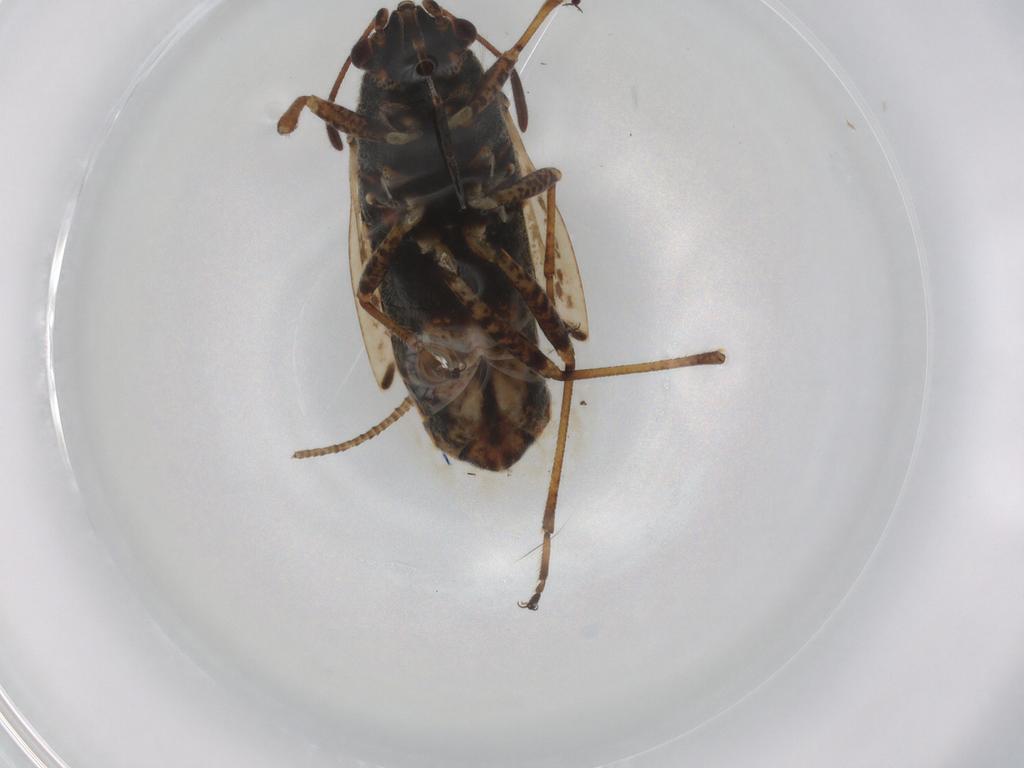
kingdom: Animalia
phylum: Arthropoda
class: Insecta
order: Hemiptera
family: Lygaeidae
